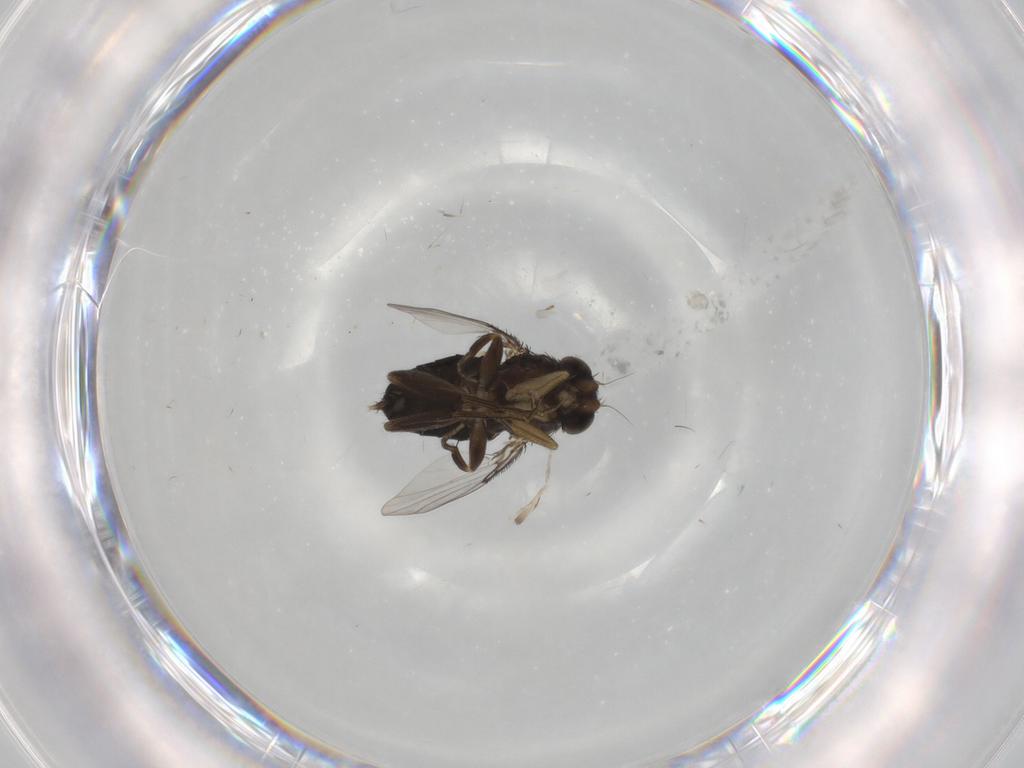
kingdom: Animalia
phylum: Arthropoda
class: Insecta
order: Diptera
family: Phoridae
